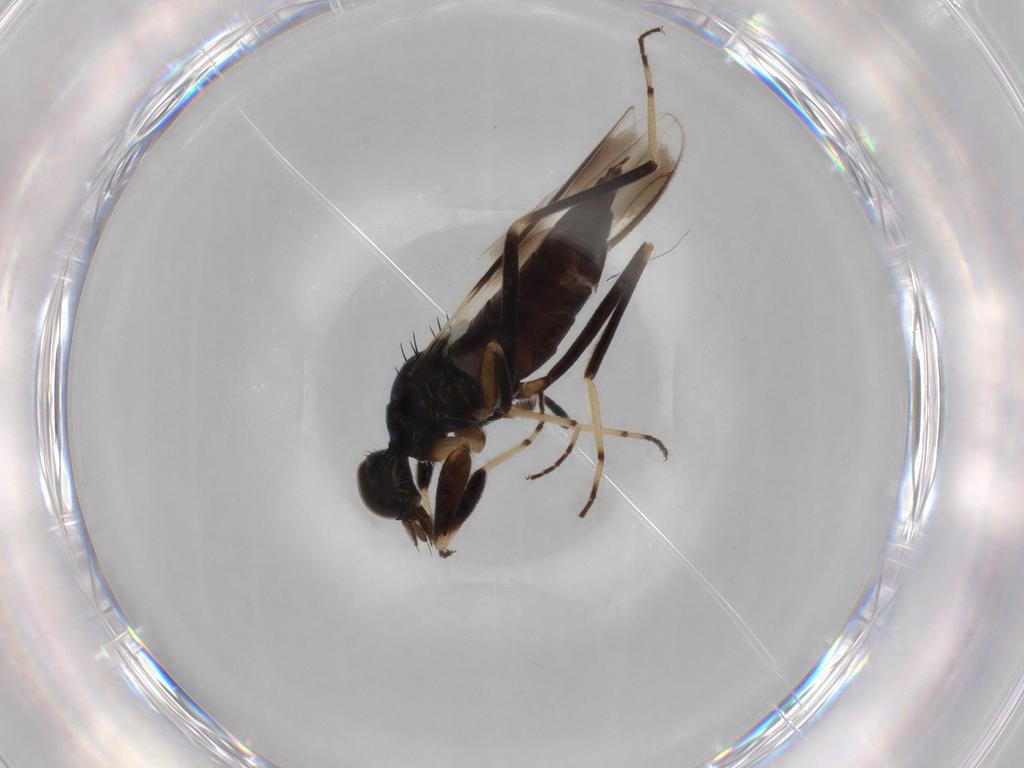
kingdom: Animalia
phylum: Arthropoda
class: Insecta
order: Diptera
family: Hybotidae
